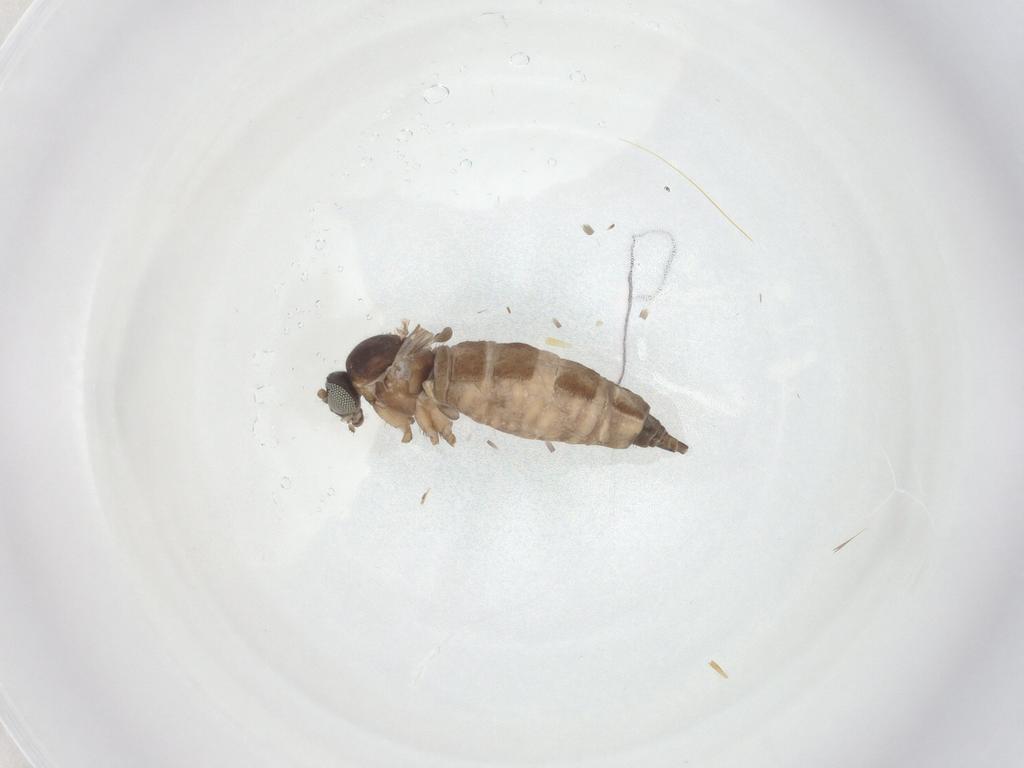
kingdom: Animalia
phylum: Arthropoda
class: Insecta
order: Diptera
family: Sciaridae
